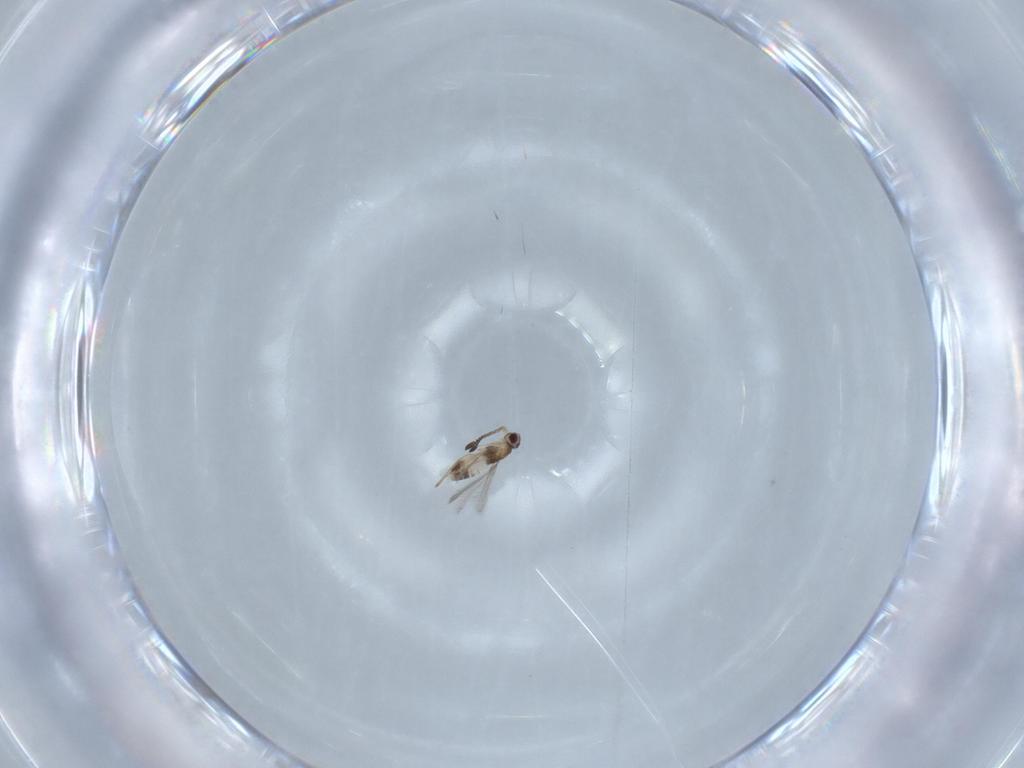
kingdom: Animalia
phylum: Arthropoda
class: Insecta
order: Hymenoptera
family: Mymaridae
